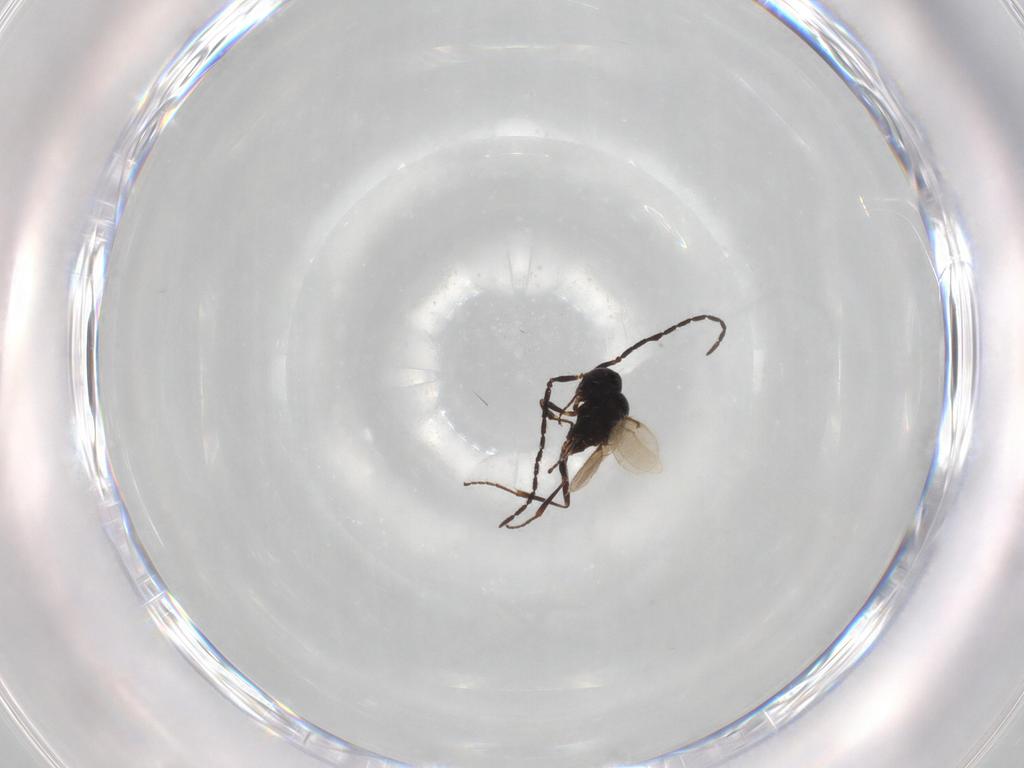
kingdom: Animalia
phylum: Arthropoda
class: Insecta
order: Hymenoptera
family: Scelionidae
